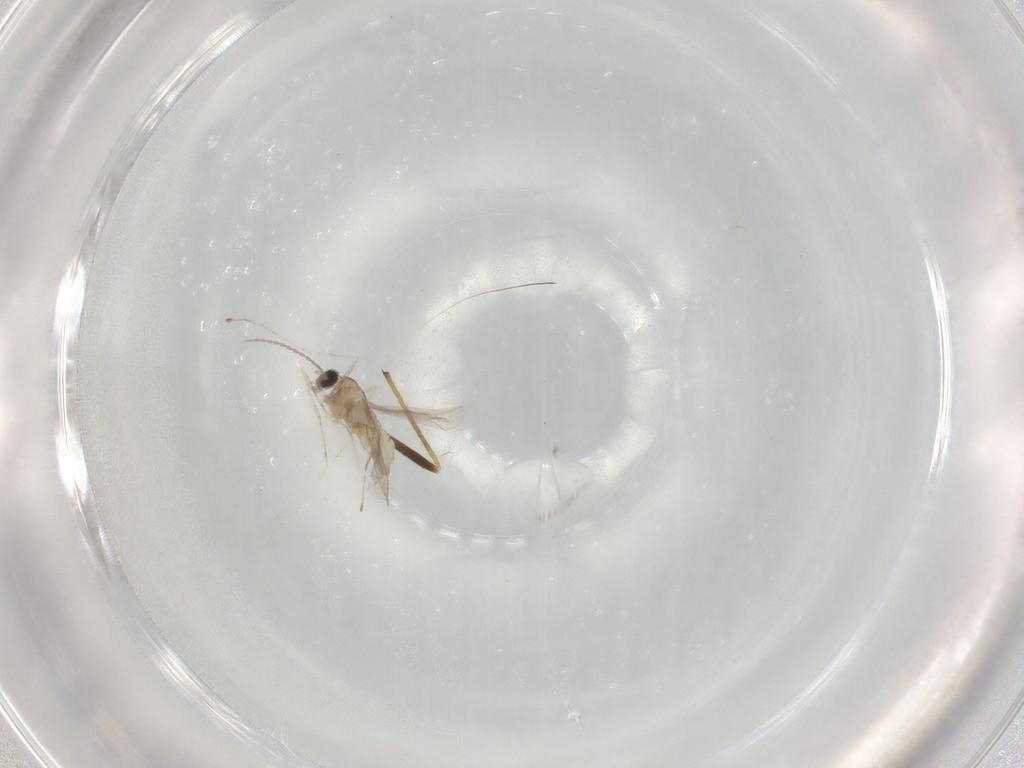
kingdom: Animalia
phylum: Arthropoda
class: Insecta
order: Diptera
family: Cecidomyiidae
